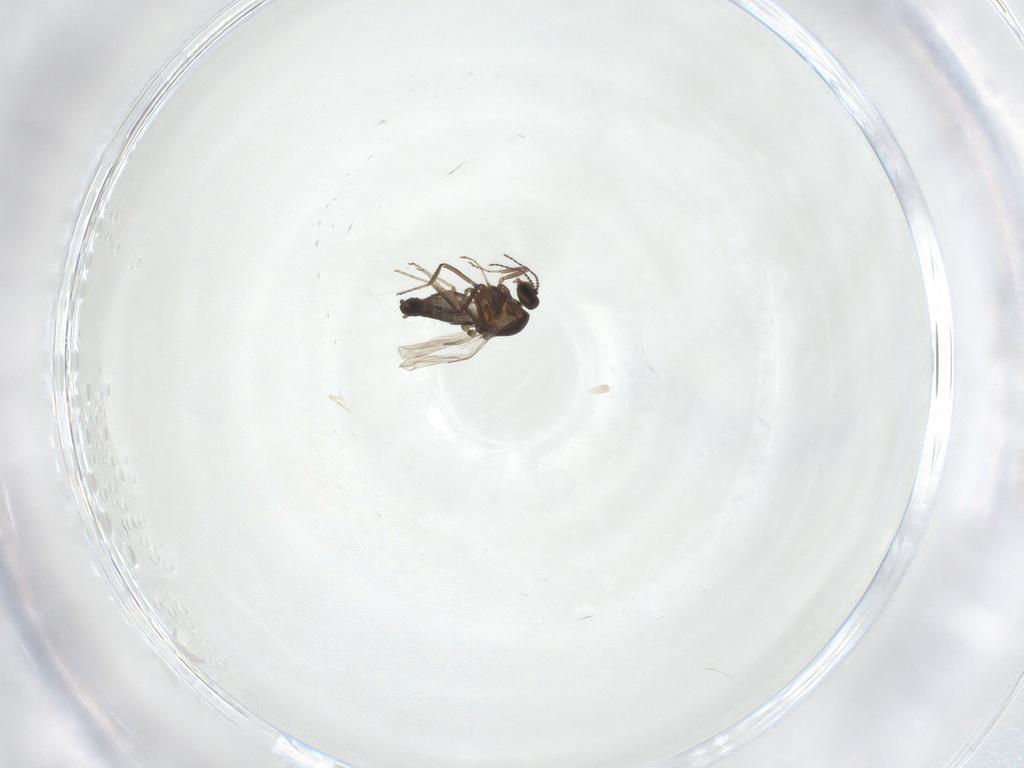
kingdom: Animalia
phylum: Arthropoda
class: Insecta
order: Diptera
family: Ceratopogonidae
